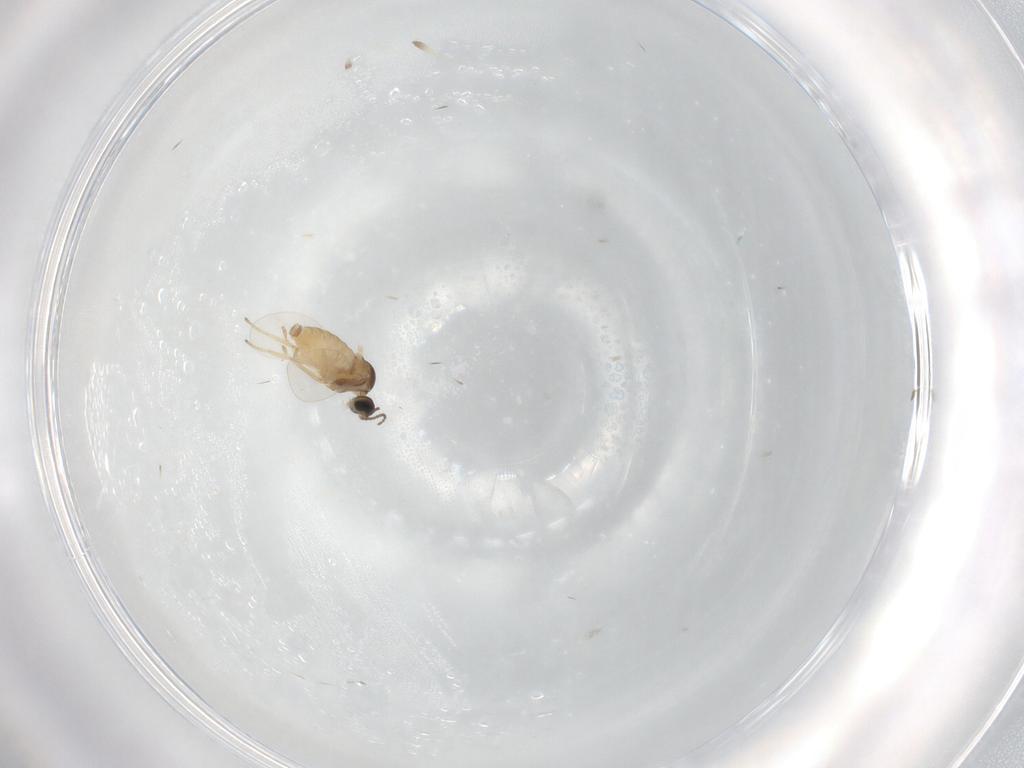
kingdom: Animalia
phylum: Arthropoda
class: Insecta
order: Diptera
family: Cecidomyiidae
